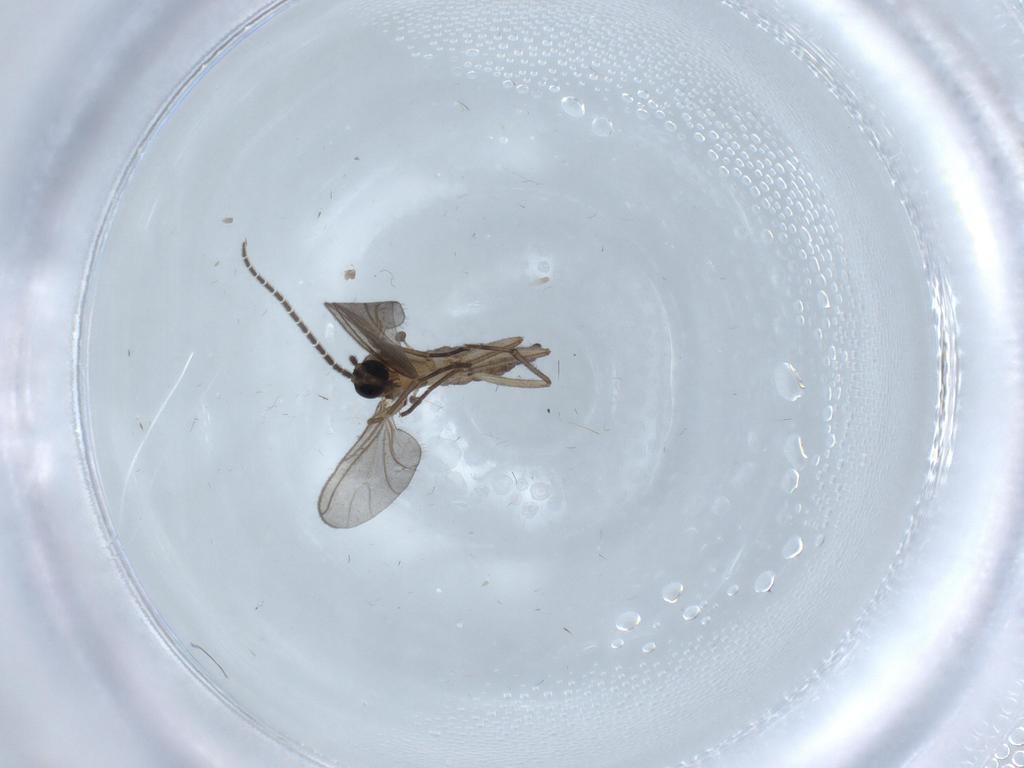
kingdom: Animalia
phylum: Arthropoda
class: Insecta
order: Diptera
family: Sciaridae
